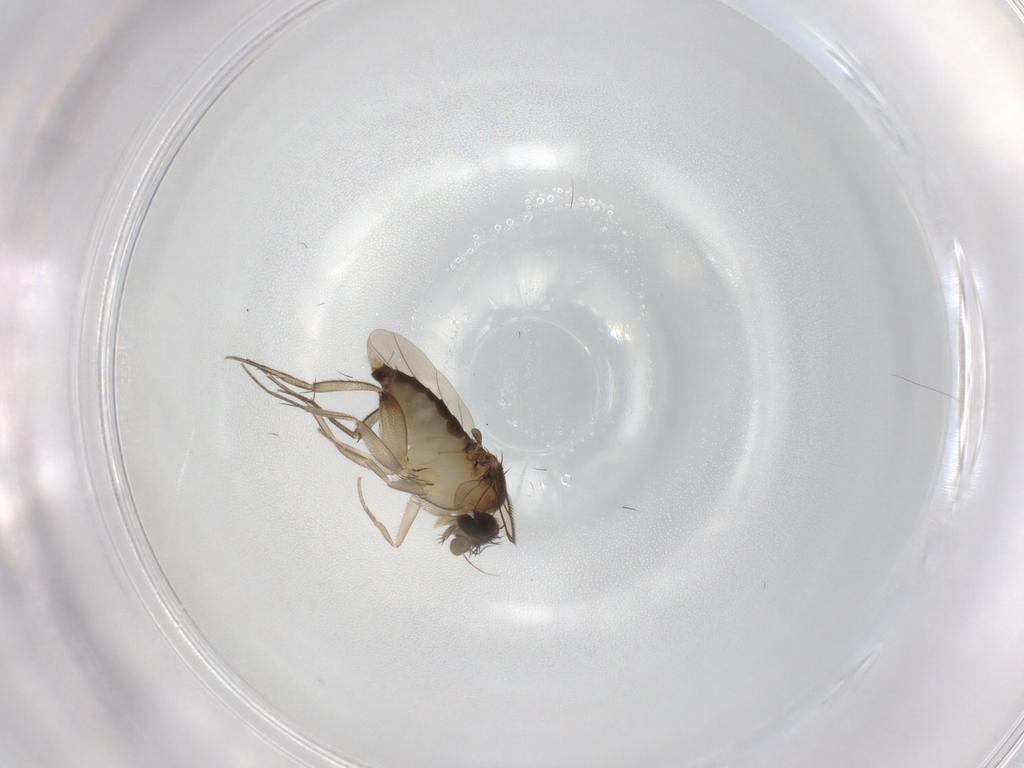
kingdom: Animalia
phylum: Arthropoda
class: Insecta
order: Diptera
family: Phoridae
